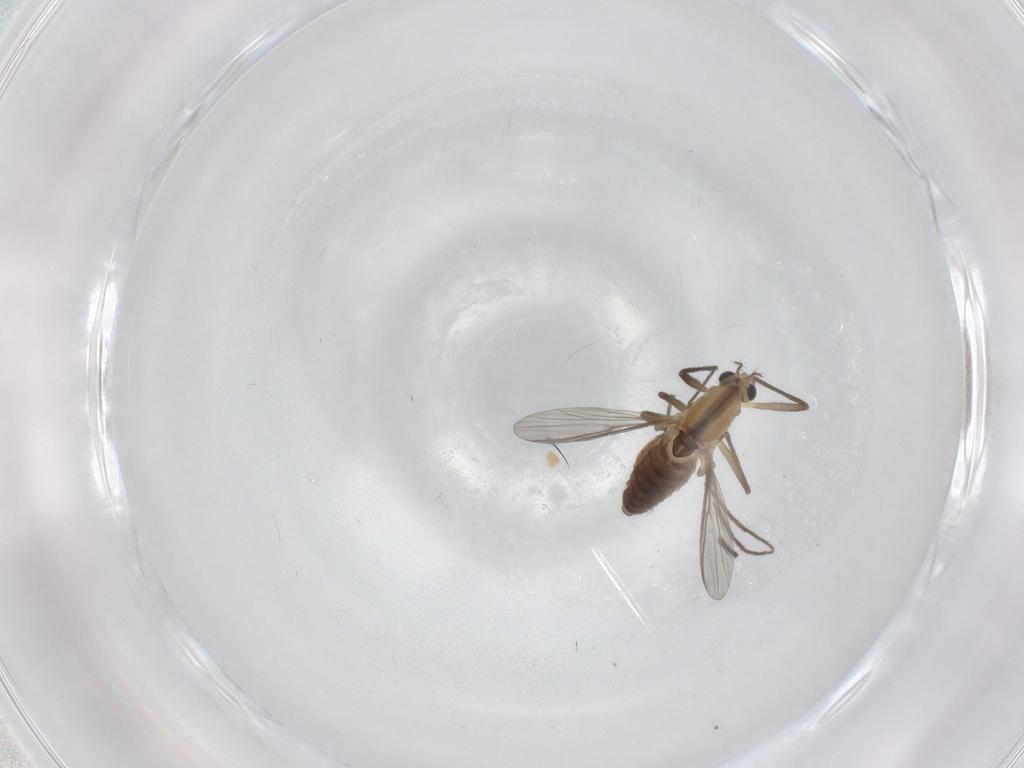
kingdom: Animalia
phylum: Arthropoda
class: Insecta
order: Diptera
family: Chironomidae
